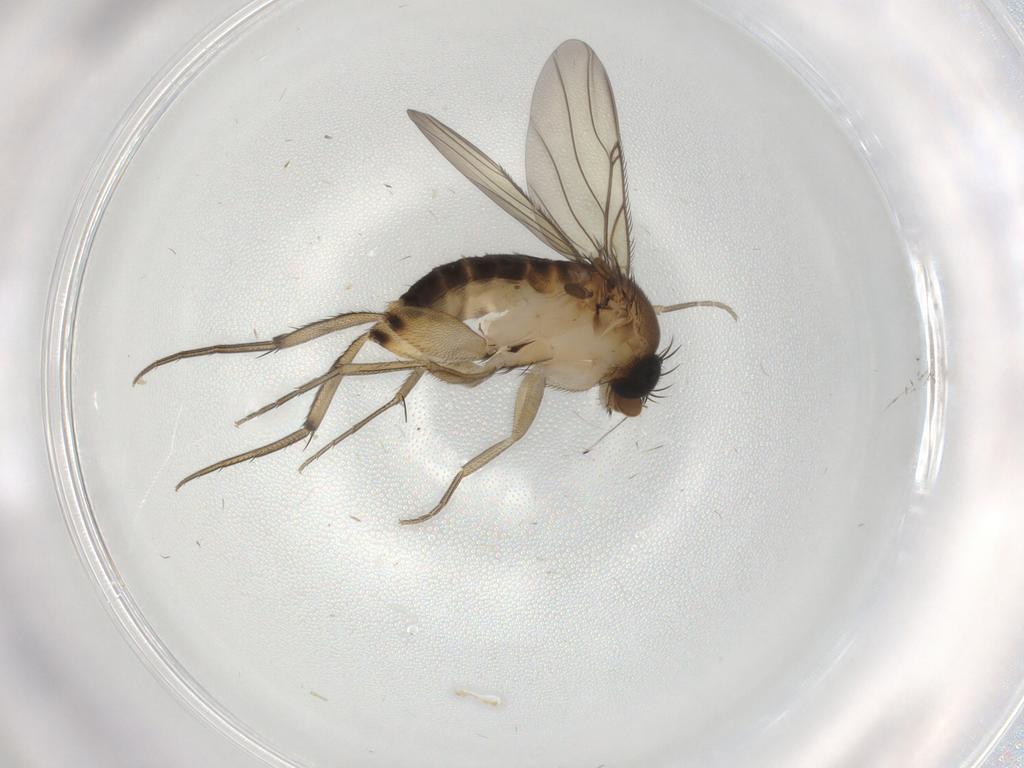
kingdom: Animalia
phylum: Arthropoda
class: Insecta
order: Diptera
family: Phoridae
